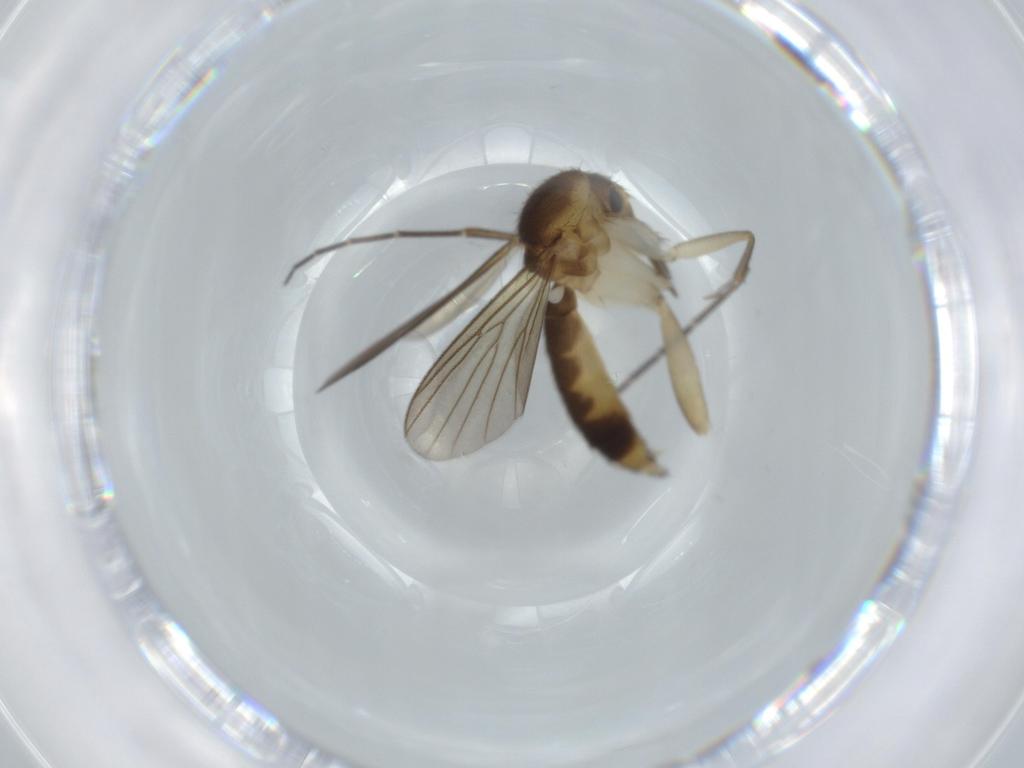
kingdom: Animalia
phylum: Arthropoda
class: Insecta
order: Diptera
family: Mycetophilidae
